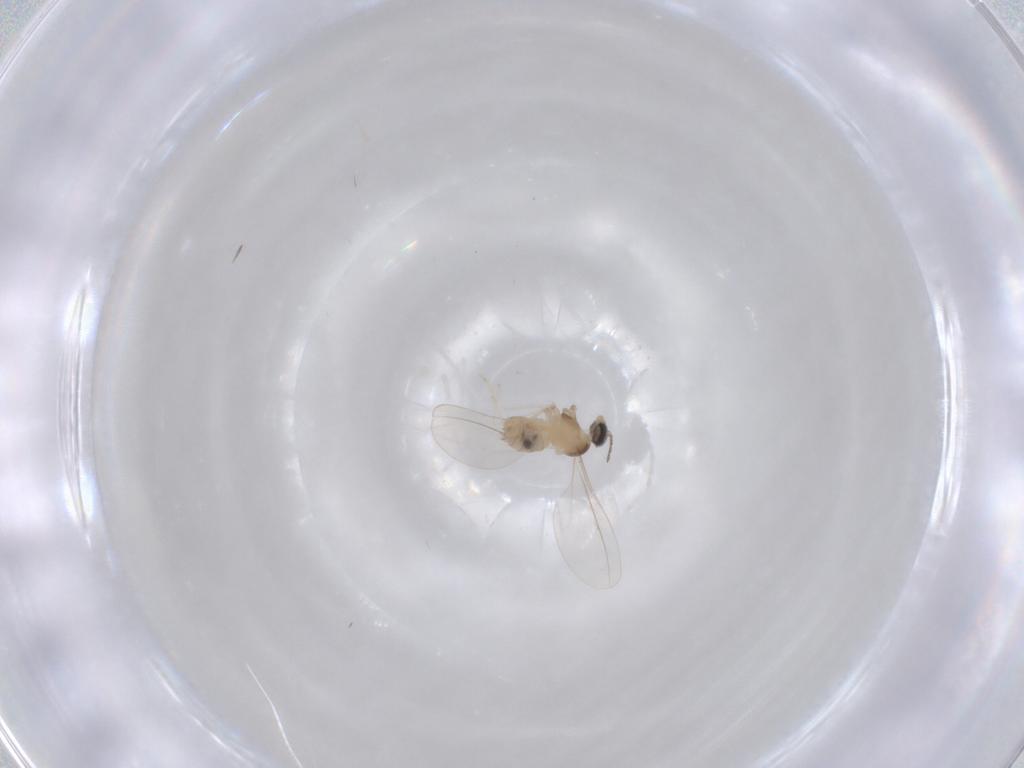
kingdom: Animalia
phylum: Arthropoda
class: Insecta
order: Diptera
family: Cecidomyiidae
